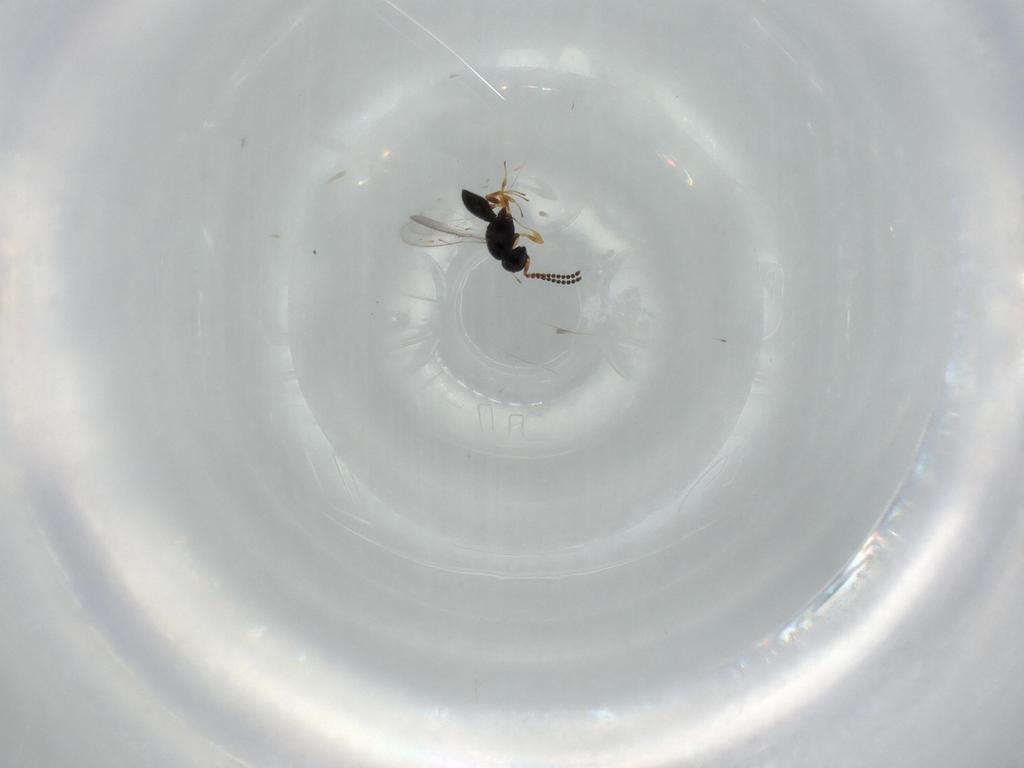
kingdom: Animalia
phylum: Arthropoda
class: Insecta
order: Hymenoptera
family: Scelionidae
